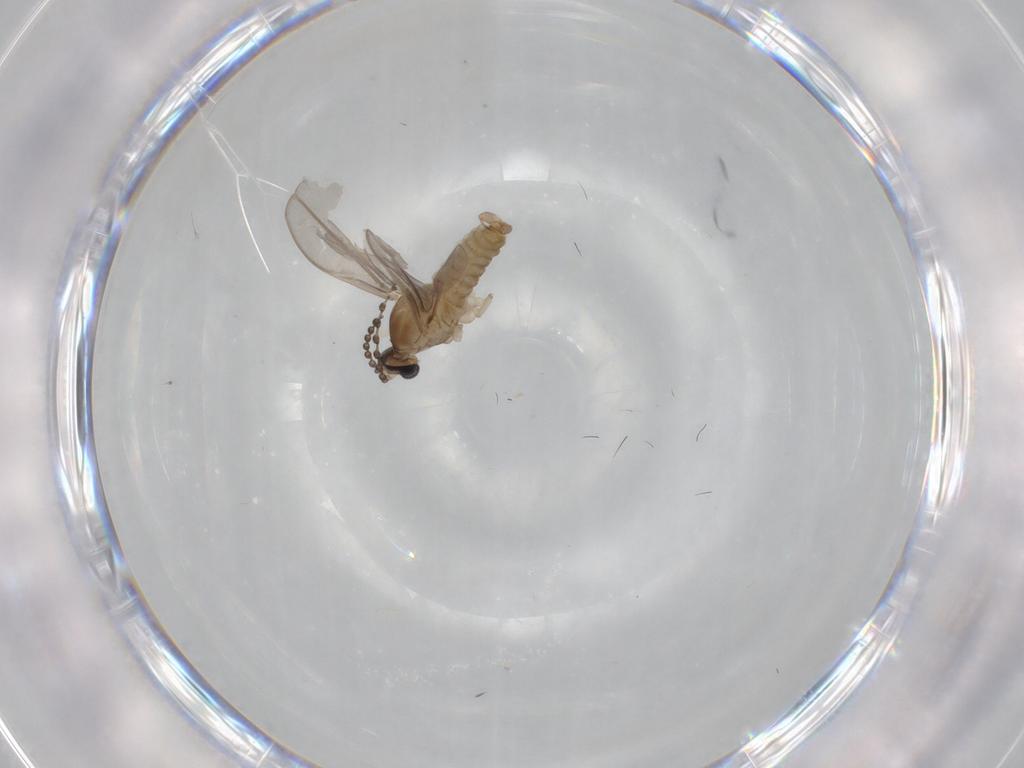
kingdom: Animalia
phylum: Arthropoda
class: Insecta
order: Diptera
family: Cecidomyiidae
